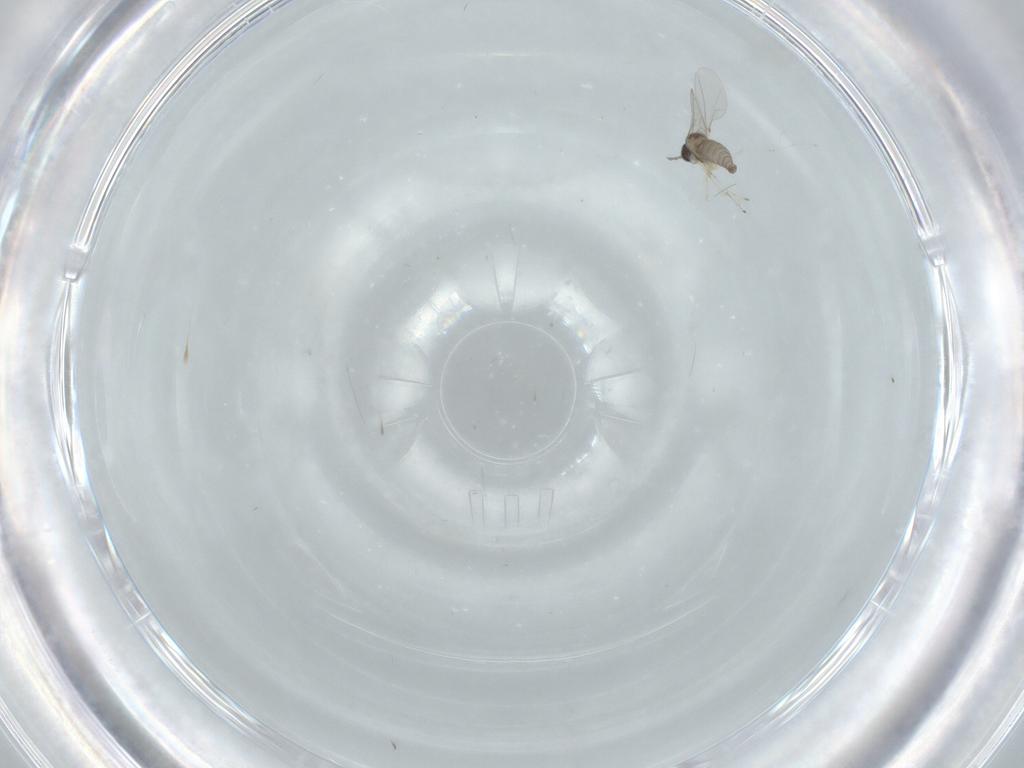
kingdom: Animalia
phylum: Arthropoda
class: Insecta
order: Diptera
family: Cecidomyiidae
